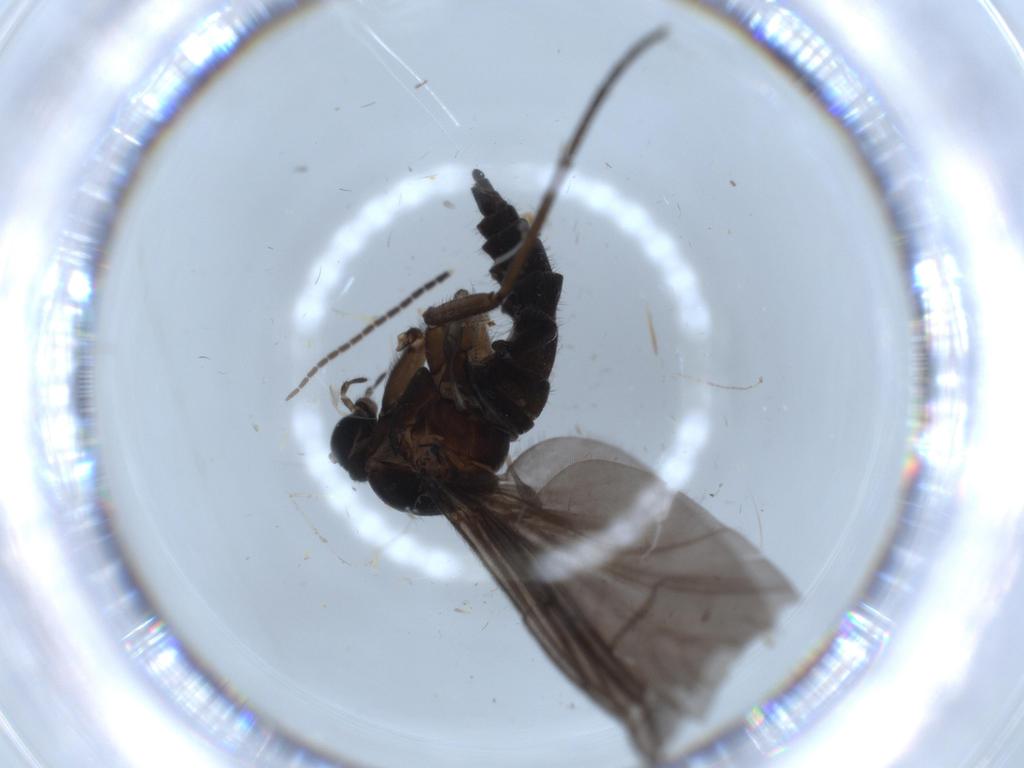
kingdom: Animalia
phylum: Arthropoda
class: Insecta
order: Diptera
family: Sciaridae
